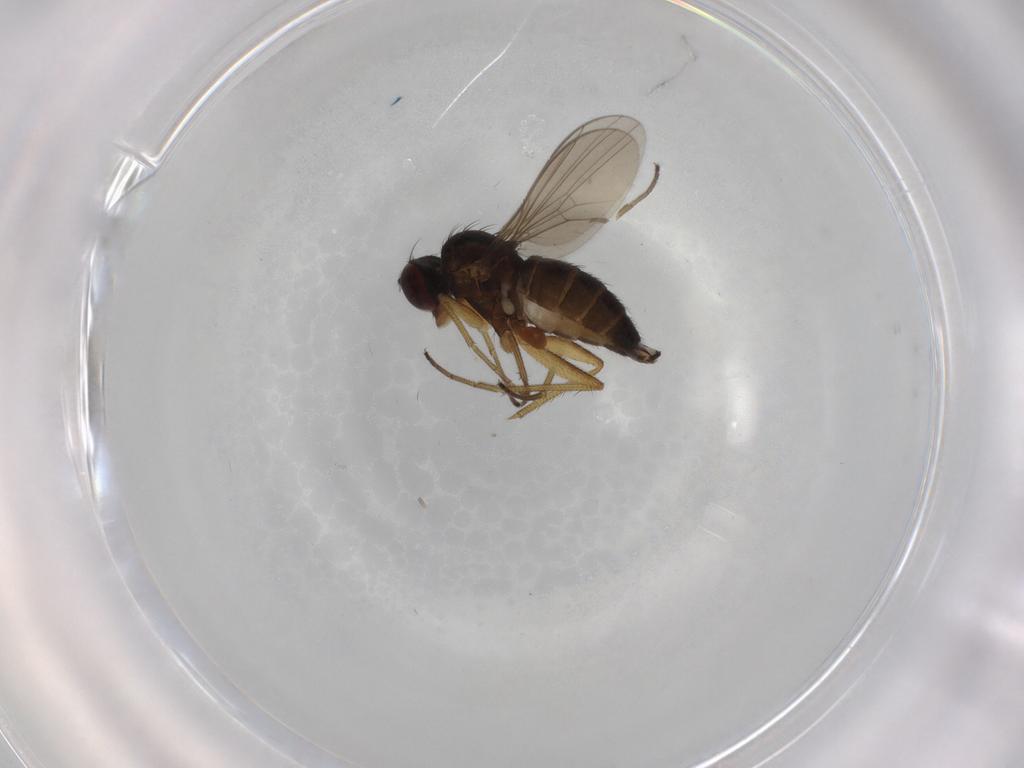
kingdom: Animalia
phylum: Arthropoda
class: Insecta
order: Diptera
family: Dolichopodidae
